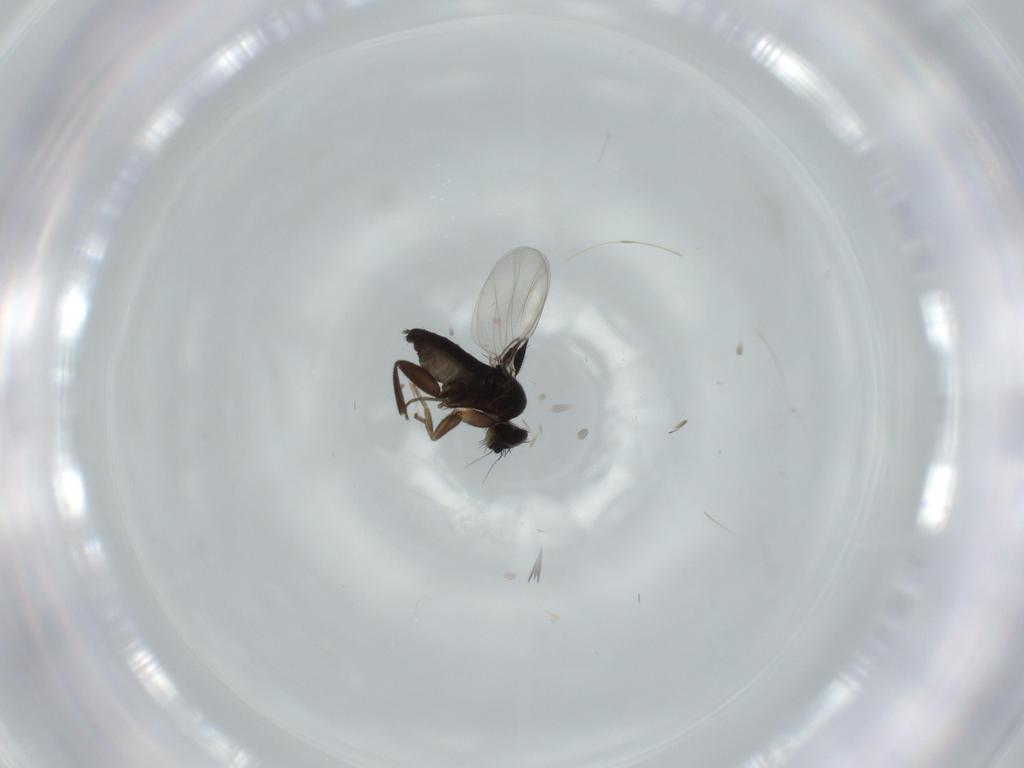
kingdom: Animalia
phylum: Arthropoda
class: Insecta
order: Diptera
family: Phoridae
